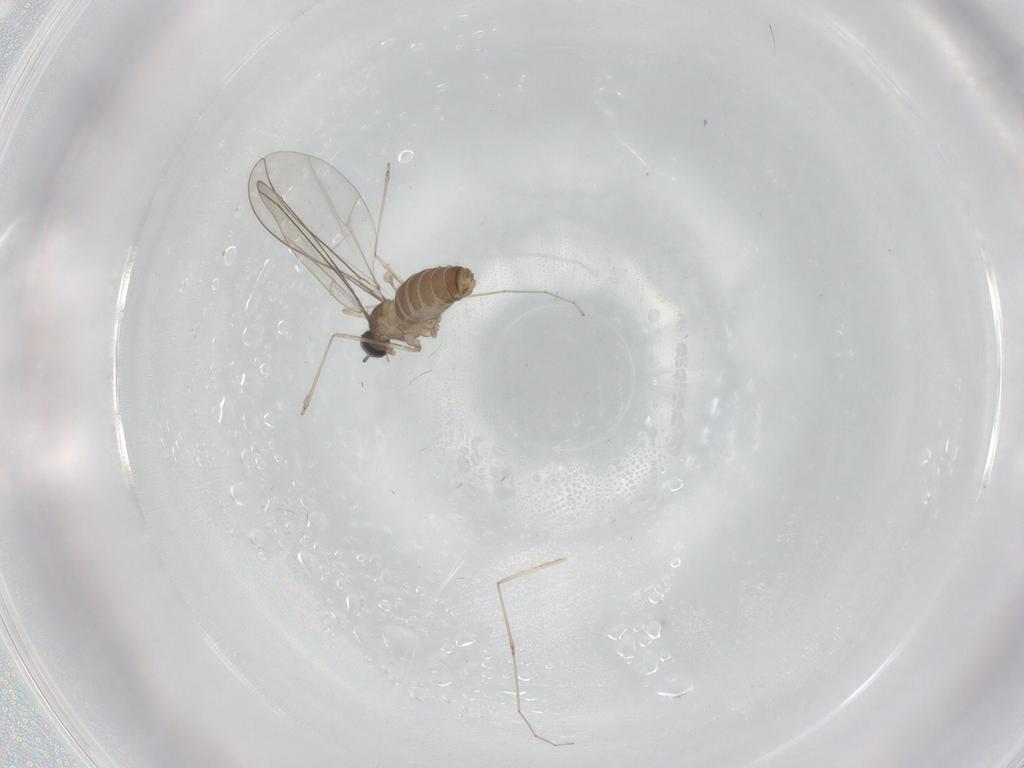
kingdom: Animalia
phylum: Arthropoda
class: Insecta
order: Diptera
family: Cecidomyiidae
